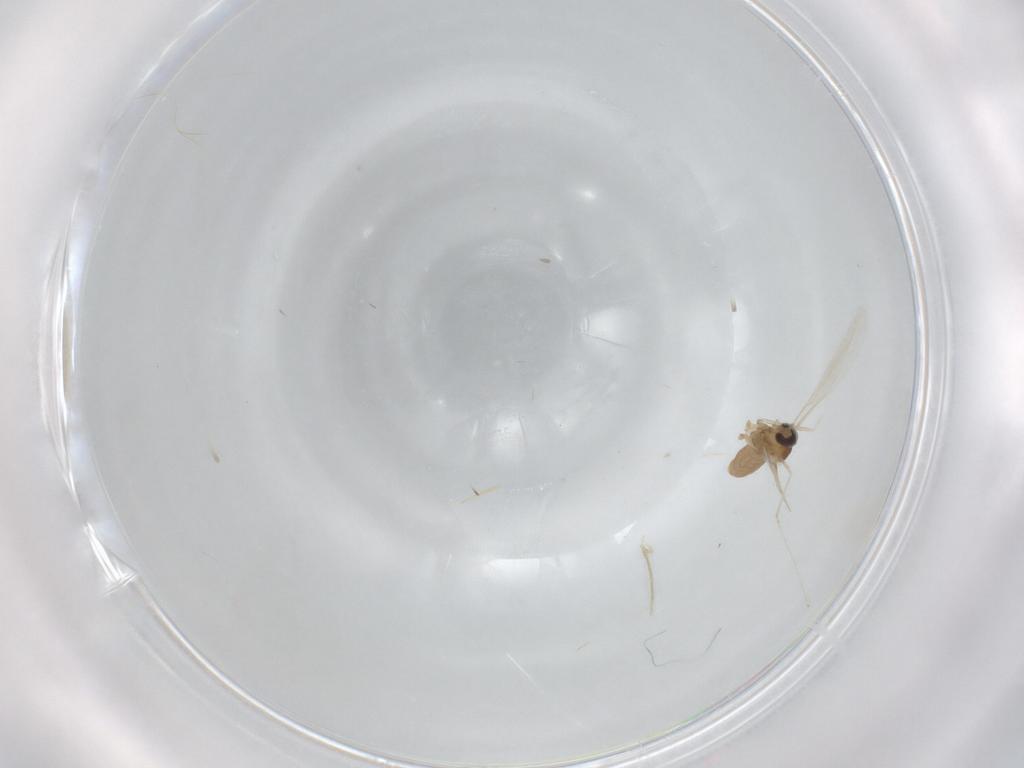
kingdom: Animalia
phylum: Arthropoda
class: Insecta
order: Diptera
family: Cecidomyiidae
